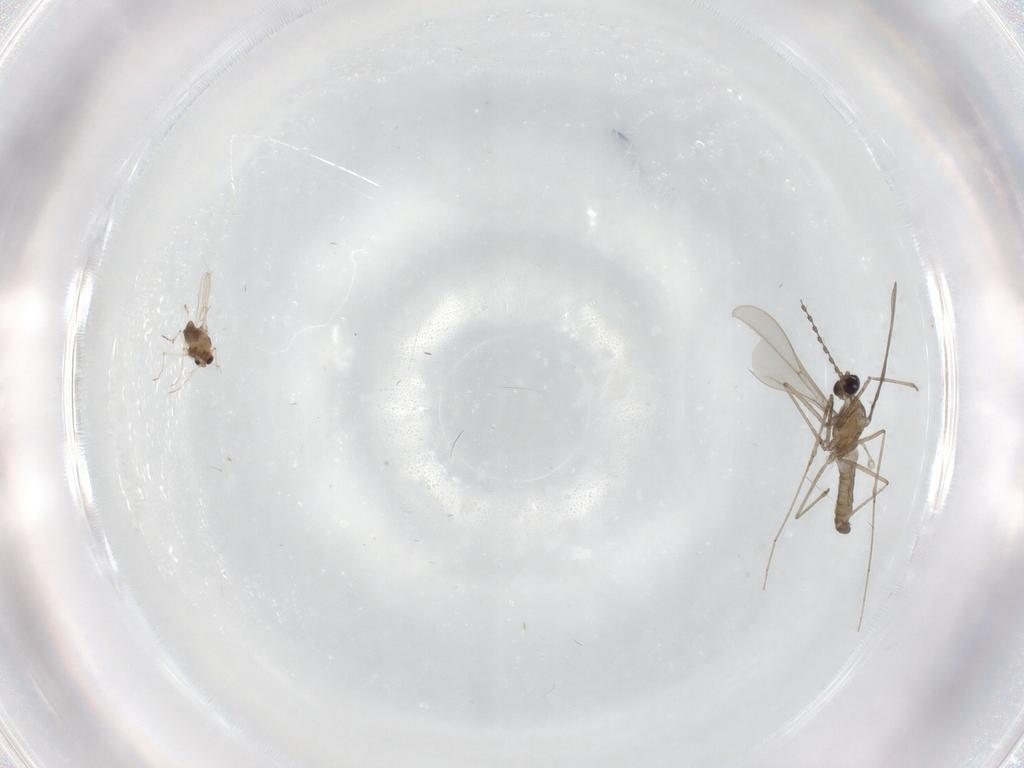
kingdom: Animalia
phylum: Arthropoda
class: Insecta
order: Diptera
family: Chironomidae
